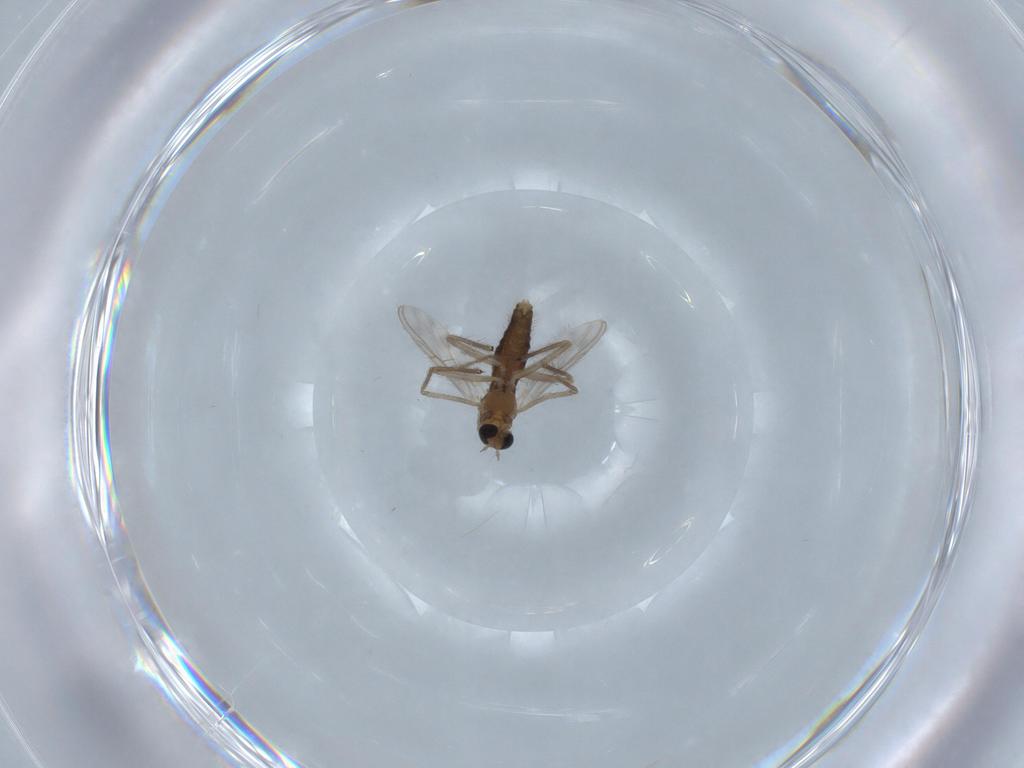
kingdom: Animalia
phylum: Arthropoda
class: Insecta
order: Diptera
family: Chironomidae
